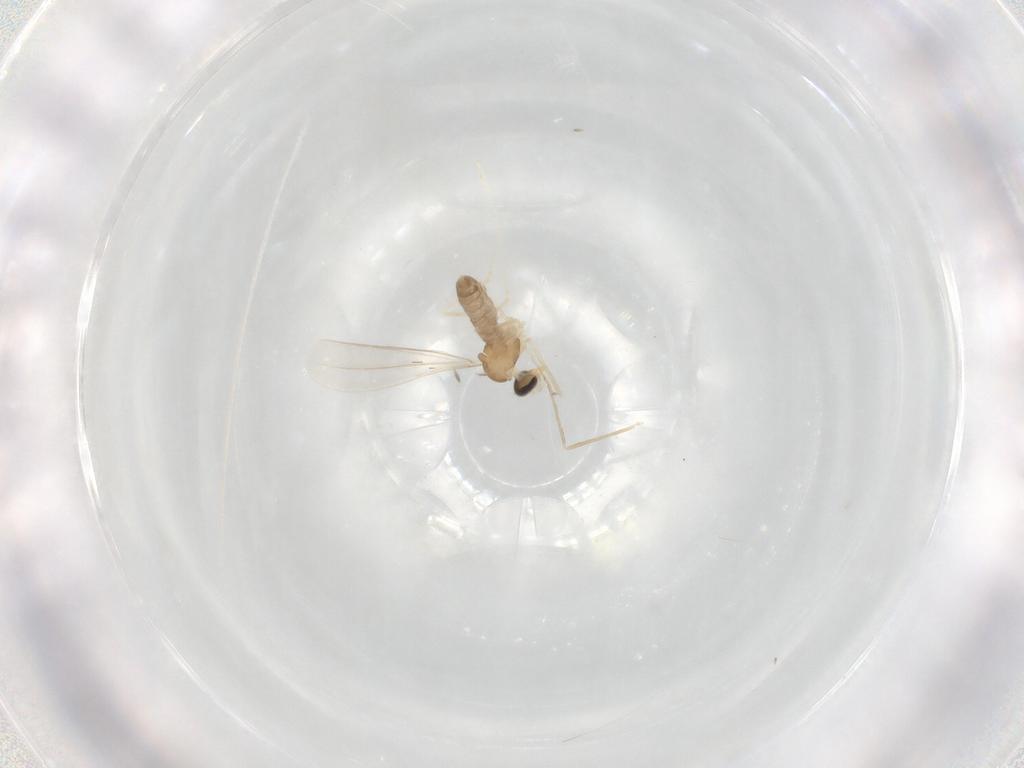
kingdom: Animalia
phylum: Arthropoda
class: Insecta
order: Diptera
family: Cecidomyiidae
